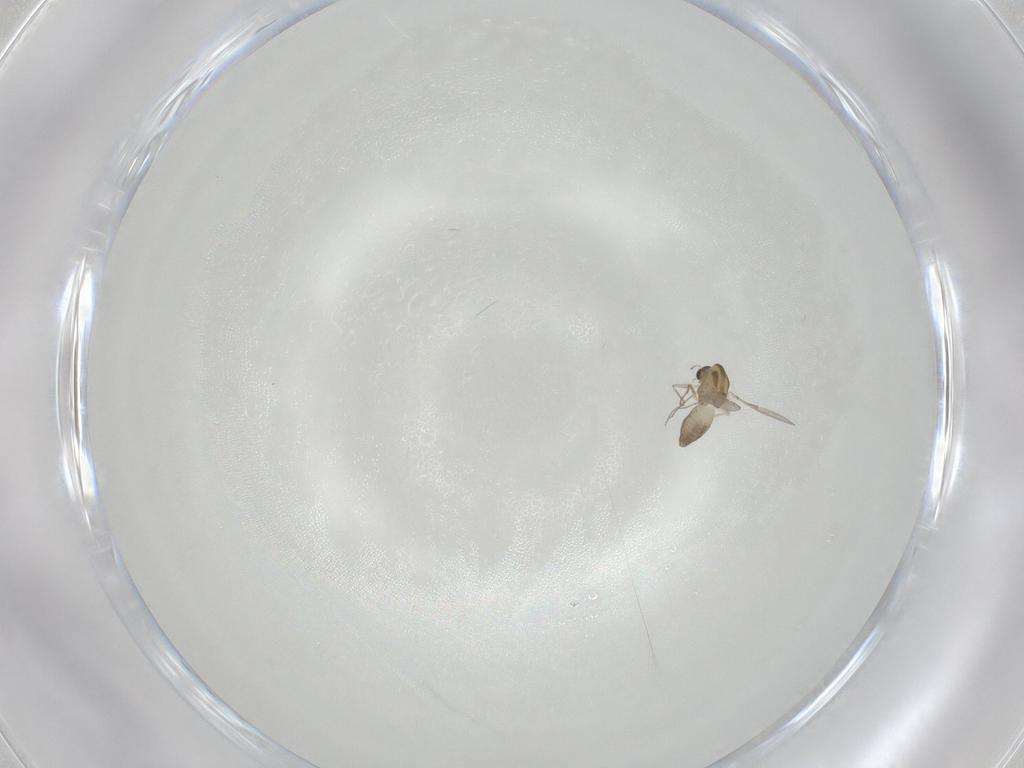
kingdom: Animalia
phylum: Arthropoda
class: Insecta
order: Diptera
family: Chironomidae
